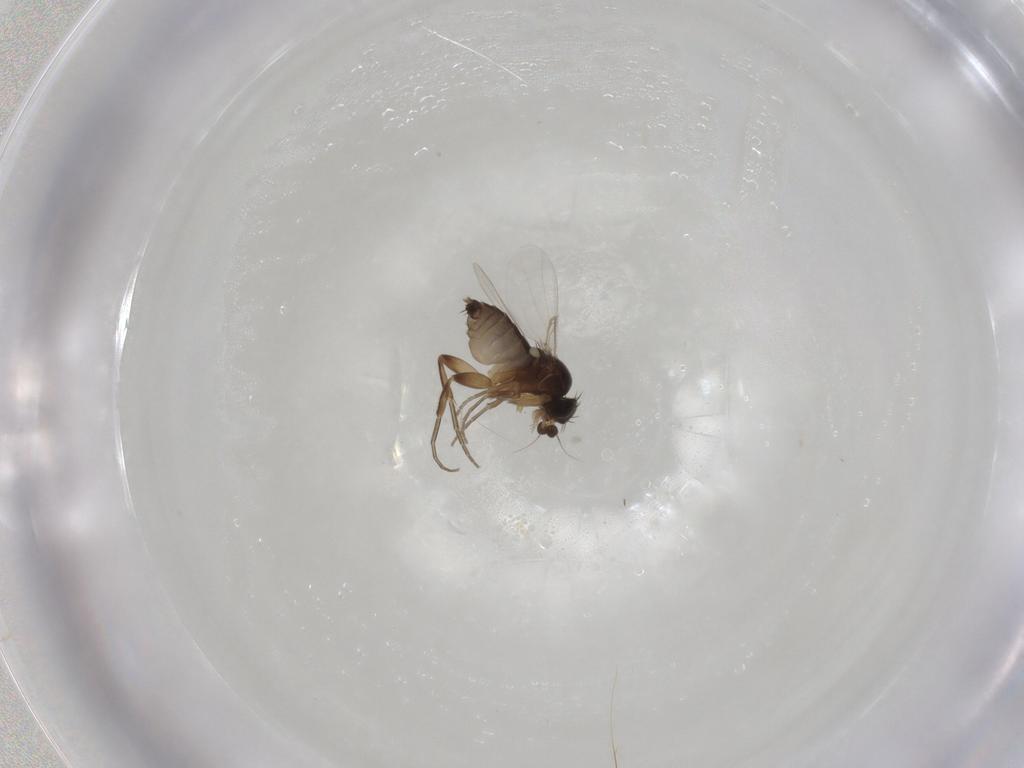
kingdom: Animalia
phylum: Arthropoda
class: Insecta
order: Diptera
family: Phoridae
